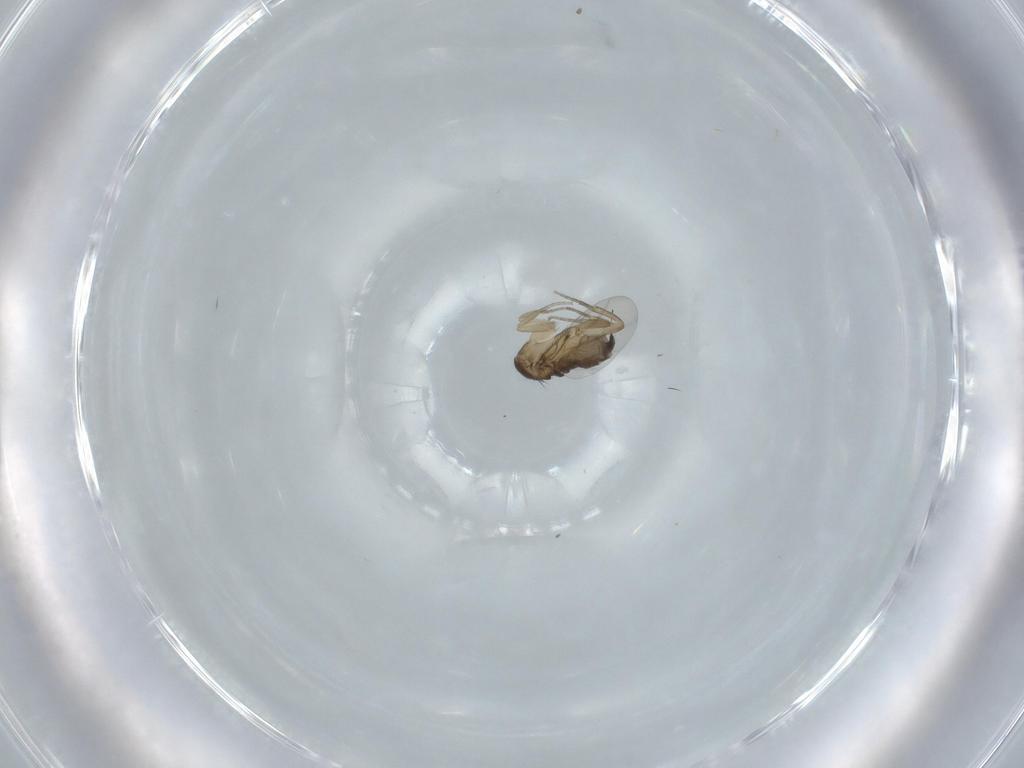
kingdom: Animalia
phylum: Arthropoda
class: Insecta
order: Diptera
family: Phoridae
